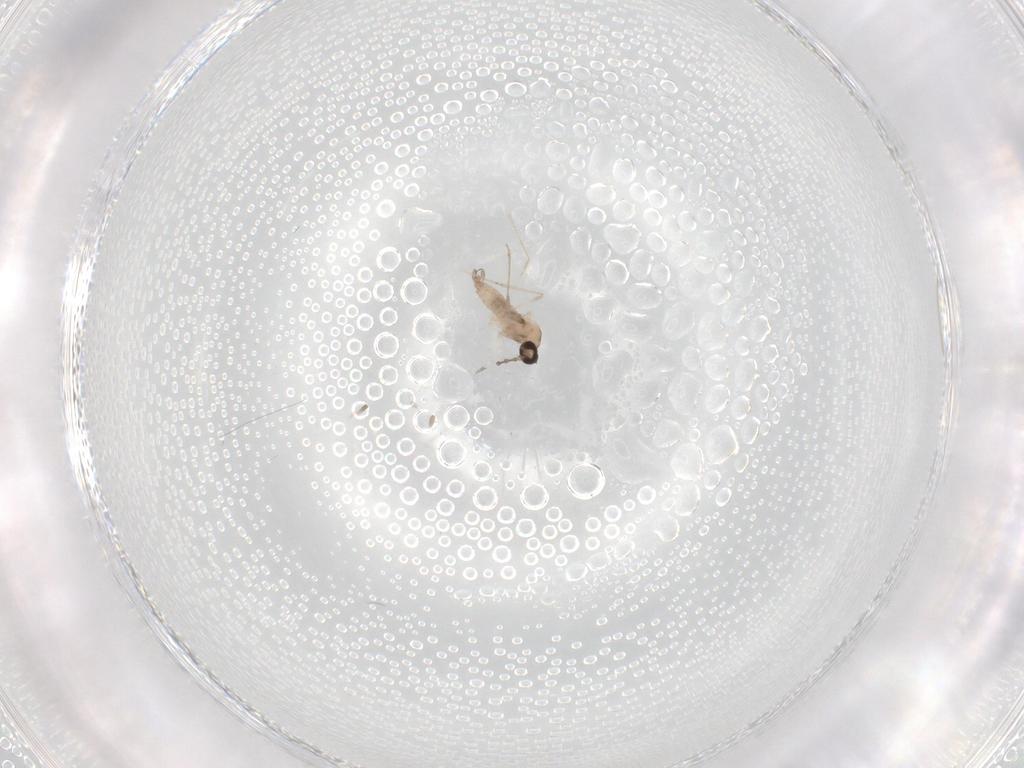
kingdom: Animalia
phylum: Arthropoda
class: Insecta
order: Diptera
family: Cecidomyiidae
